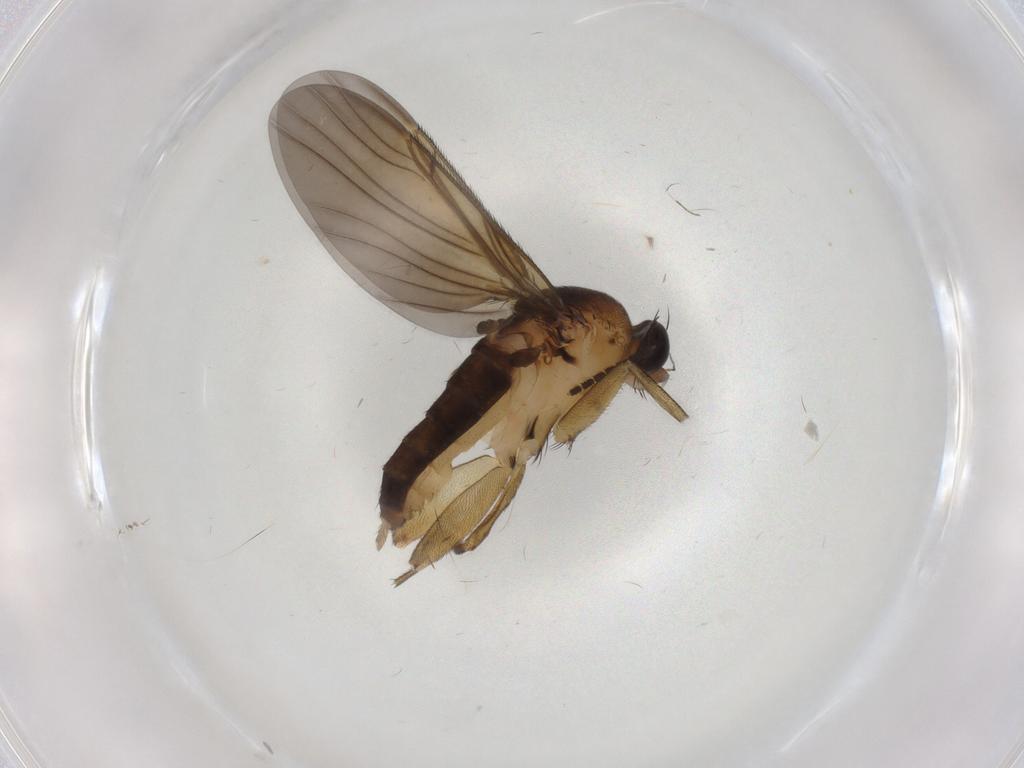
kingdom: Animalia
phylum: Arthropoda
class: Insecta
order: Diptera
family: Phoridae
